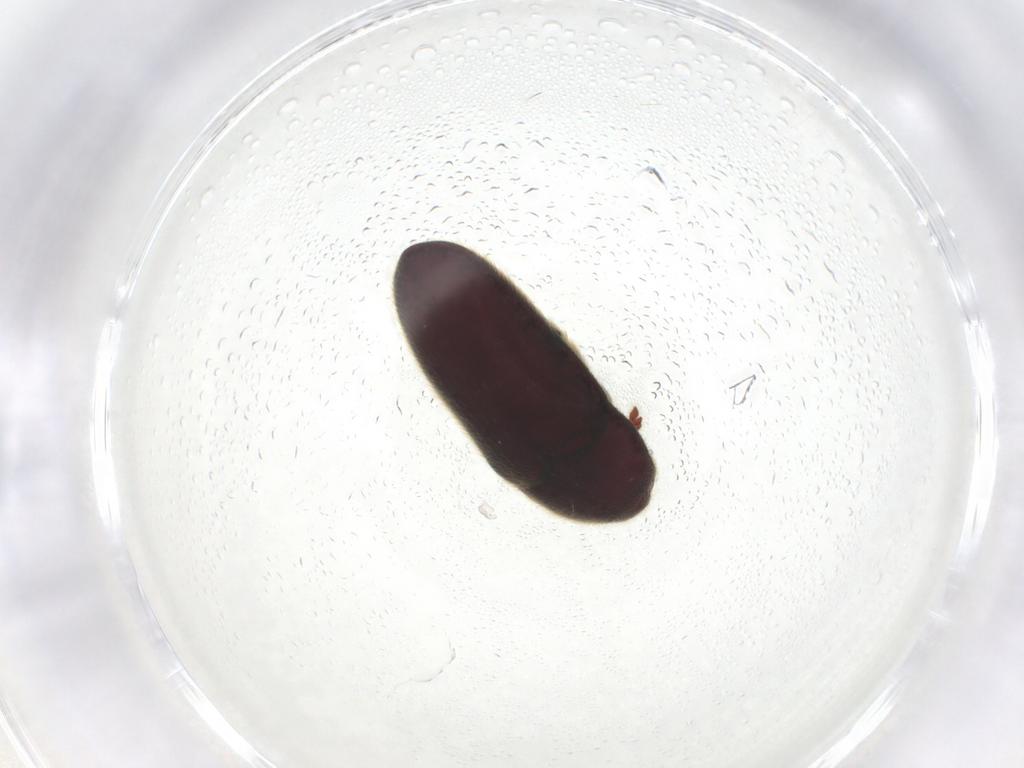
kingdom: Animalia
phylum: Arthropoda
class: Insecta
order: Coleoptera
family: Throscidae
